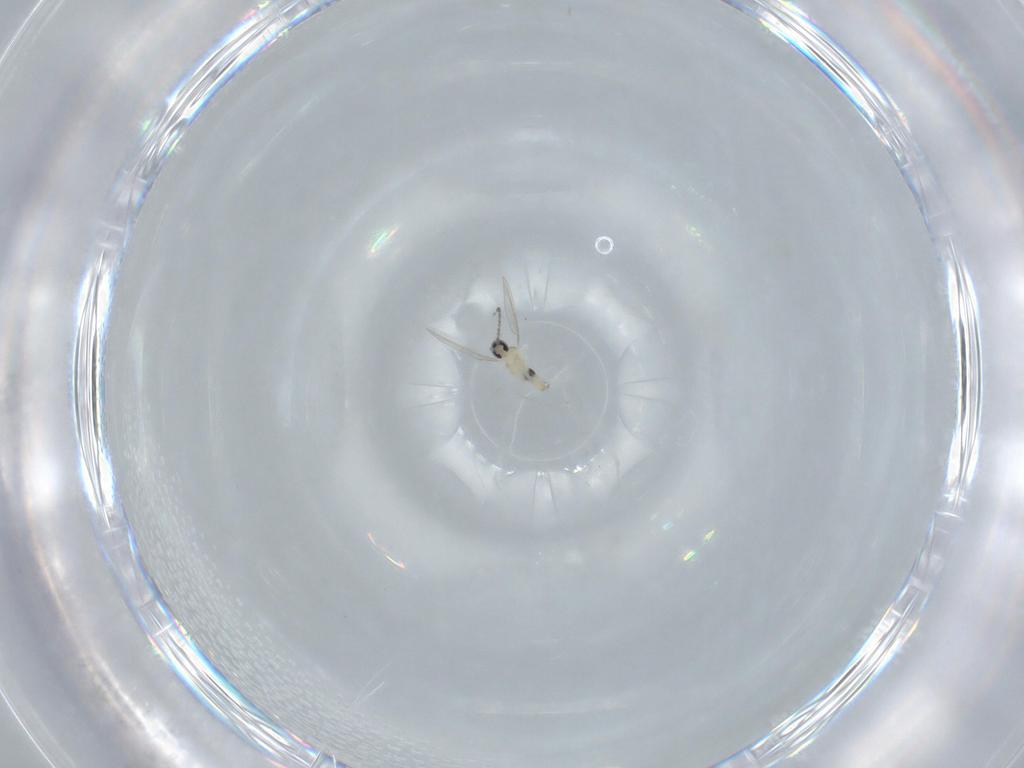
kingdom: Animalia
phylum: Arthropoda
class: Insecta
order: Diptera
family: Cecidomyiidae
